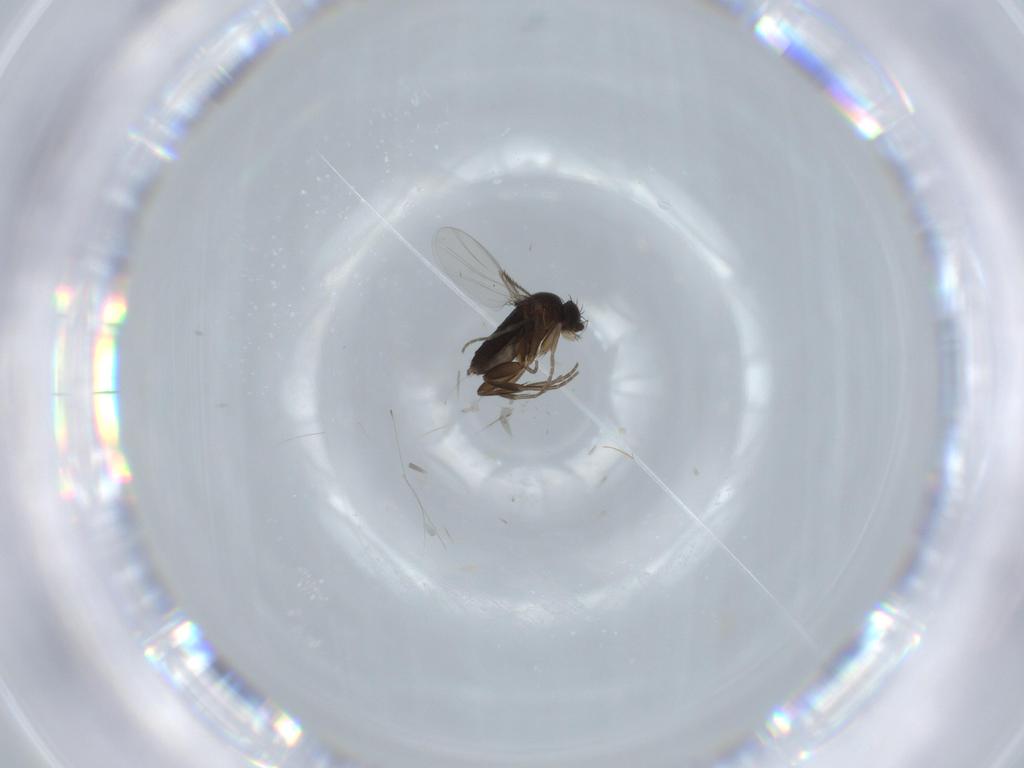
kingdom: Animalia
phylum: Arthropoda
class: Insecta
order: Diptera
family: Phoridae
